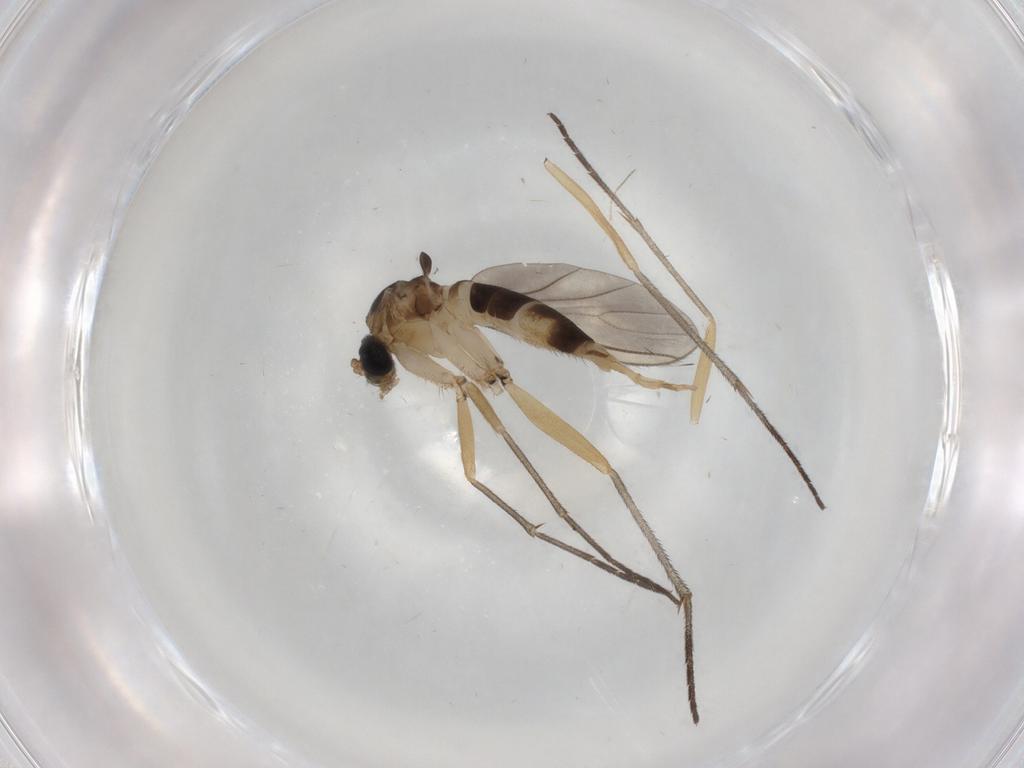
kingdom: Animalia
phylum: Arthropoda
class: Insecta
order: Diptera
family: Sciaridae
